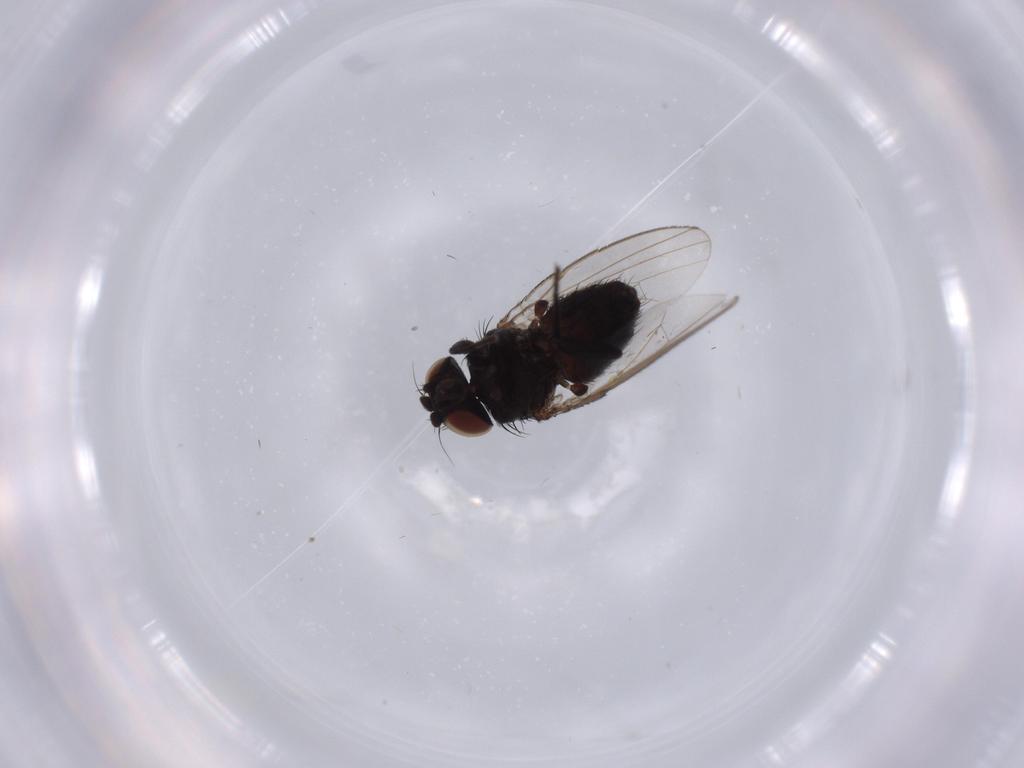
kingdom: Animalia
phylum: Arthropoda
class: Insecta
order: Diptera
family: Milichiidae
